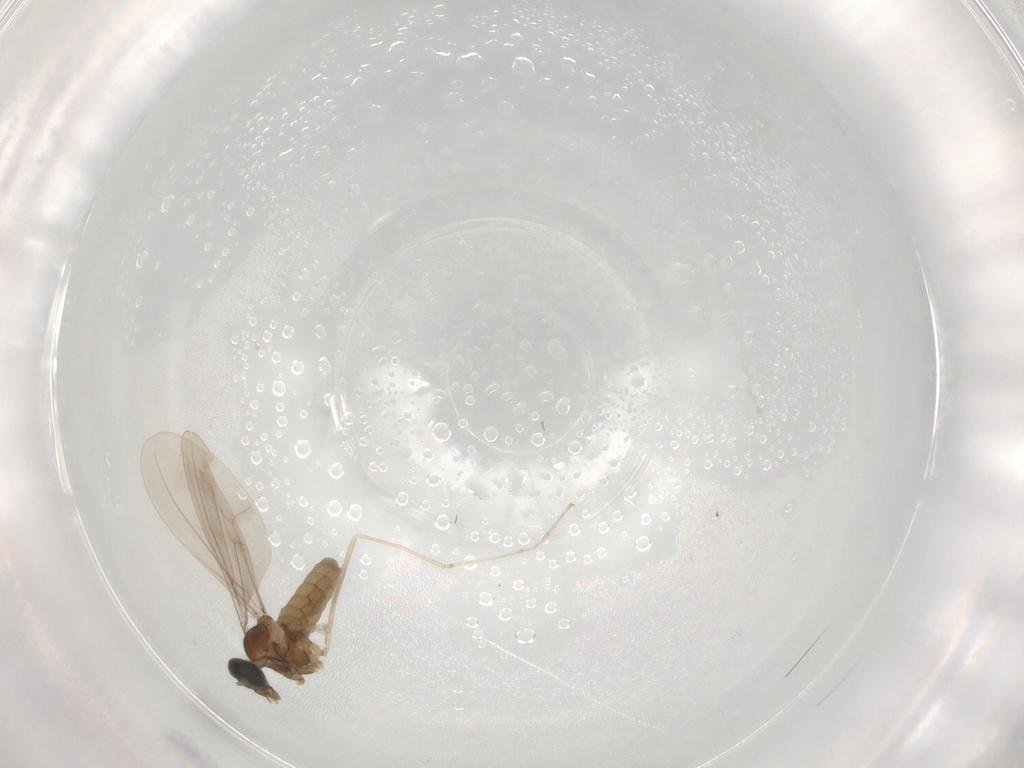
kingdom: Animalia
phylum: Arthropoda
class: Insecta
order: Diptera
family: Cecidomyiidae
